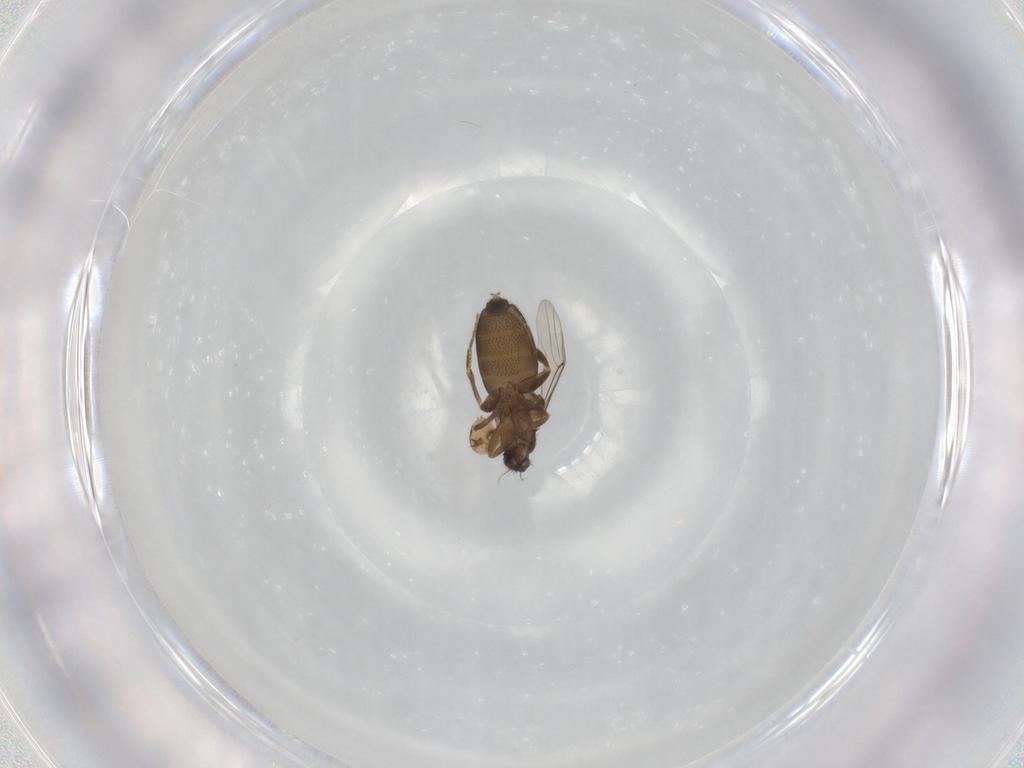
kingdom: Animalia
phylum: Arthropoda
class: Insecta
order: Diptera
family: Phoridae
